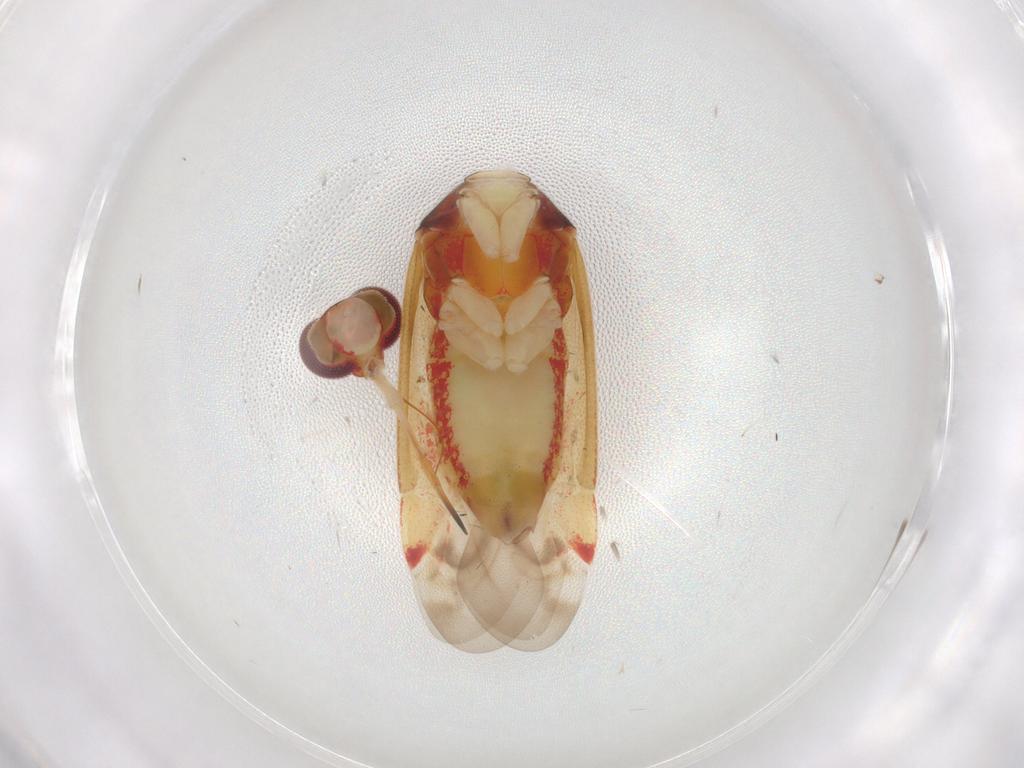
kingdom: Animalia
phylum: Arthropoda
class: Insecta
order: Hemiptera
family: Miridae
